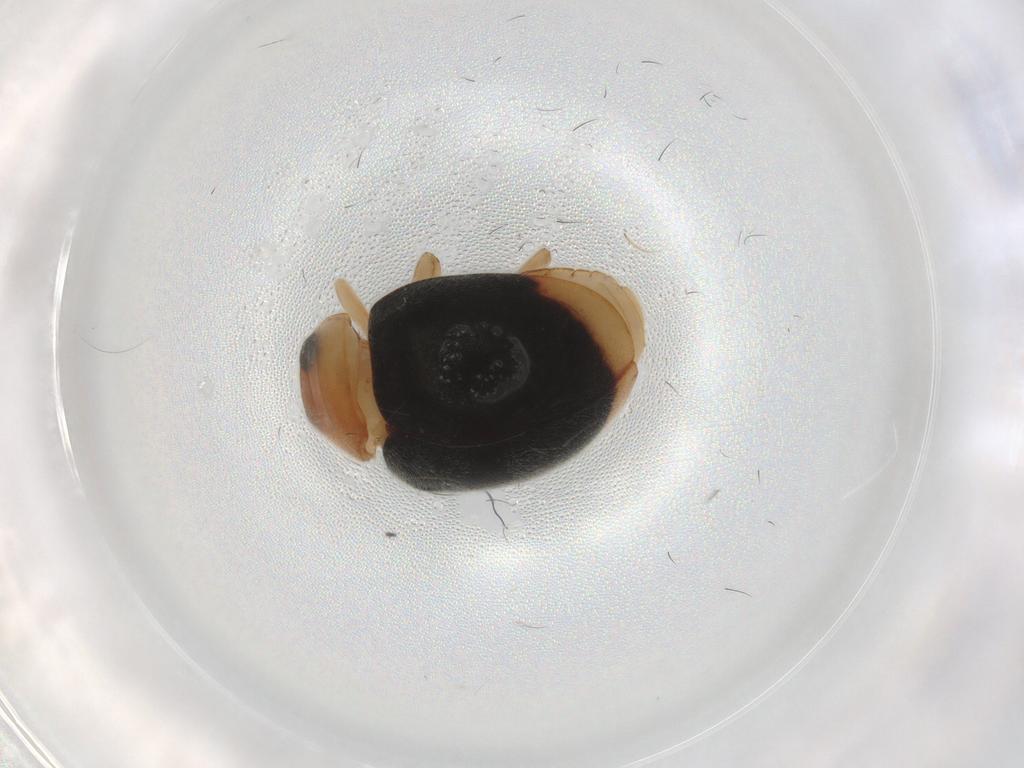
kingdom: Animalia
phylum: Arthropoda
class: Insecta
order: Coleoptera
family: Coccinellidae
